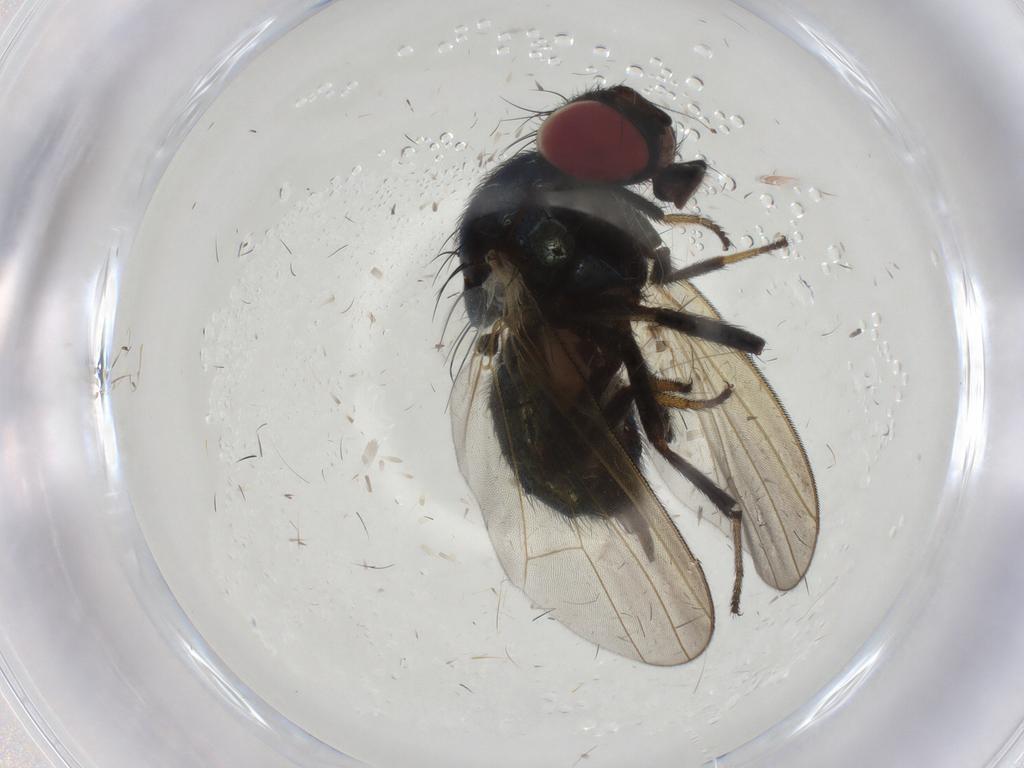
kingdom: Animalia
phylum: Arthropoda
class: Insecta
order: Diptera
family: Lonchaeidae
